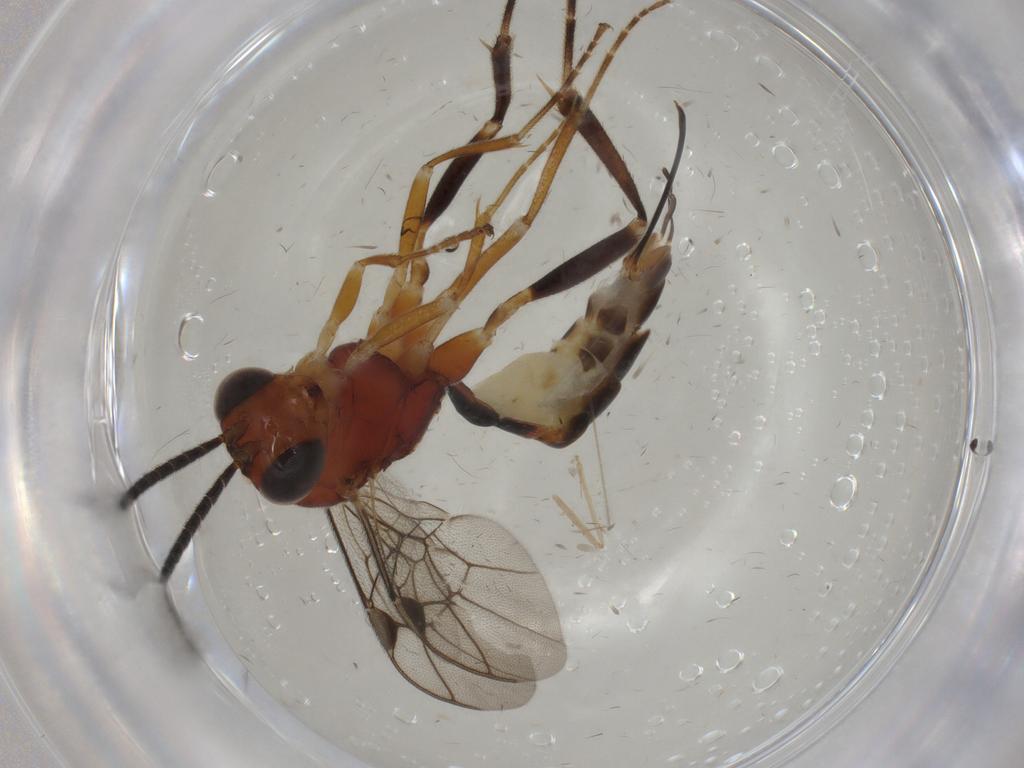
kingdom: Animalia
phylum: Arthropoda
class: Insecta
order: Hymenoptera
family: Ichneumonidae
